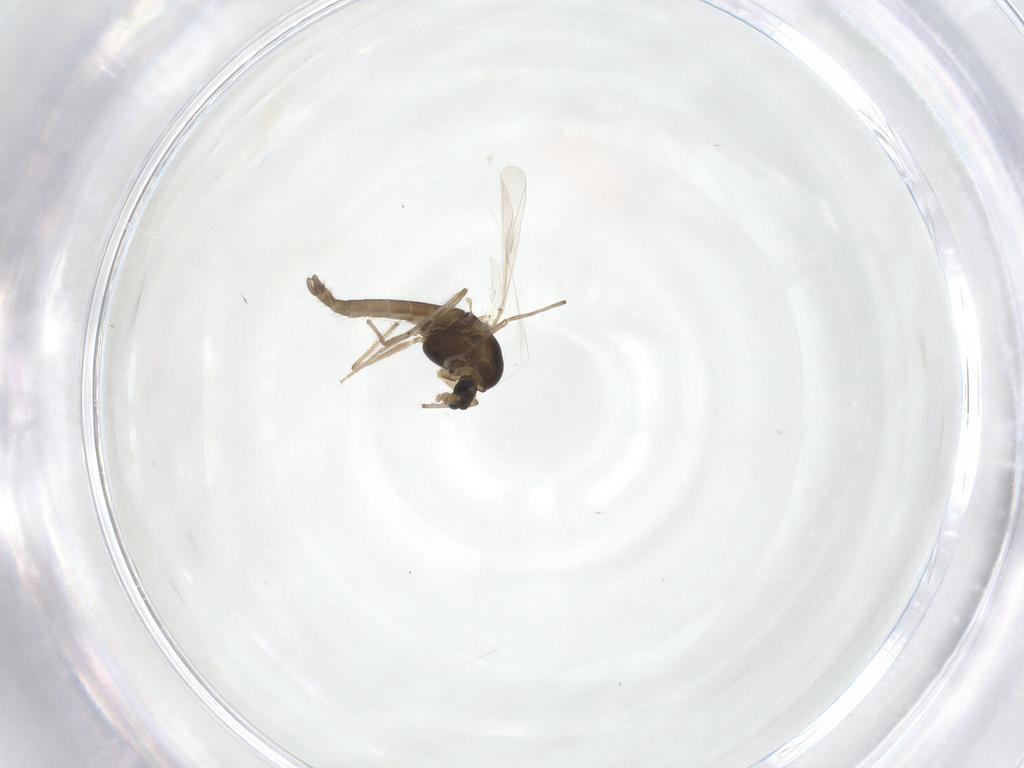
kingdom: Animalia
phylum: Arthropoda
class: Insecta
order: Diptera
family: Chironomidae
